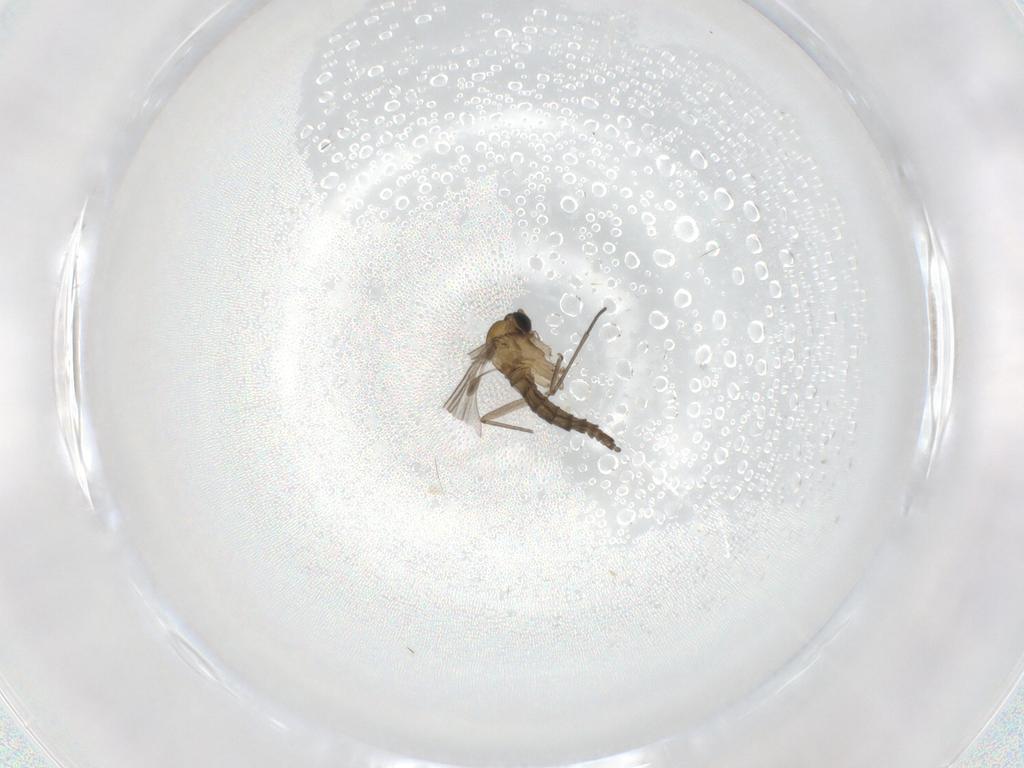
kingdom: Animalia
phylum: Arthropoda
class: Insecta
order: Diptera
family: Sciaridae
